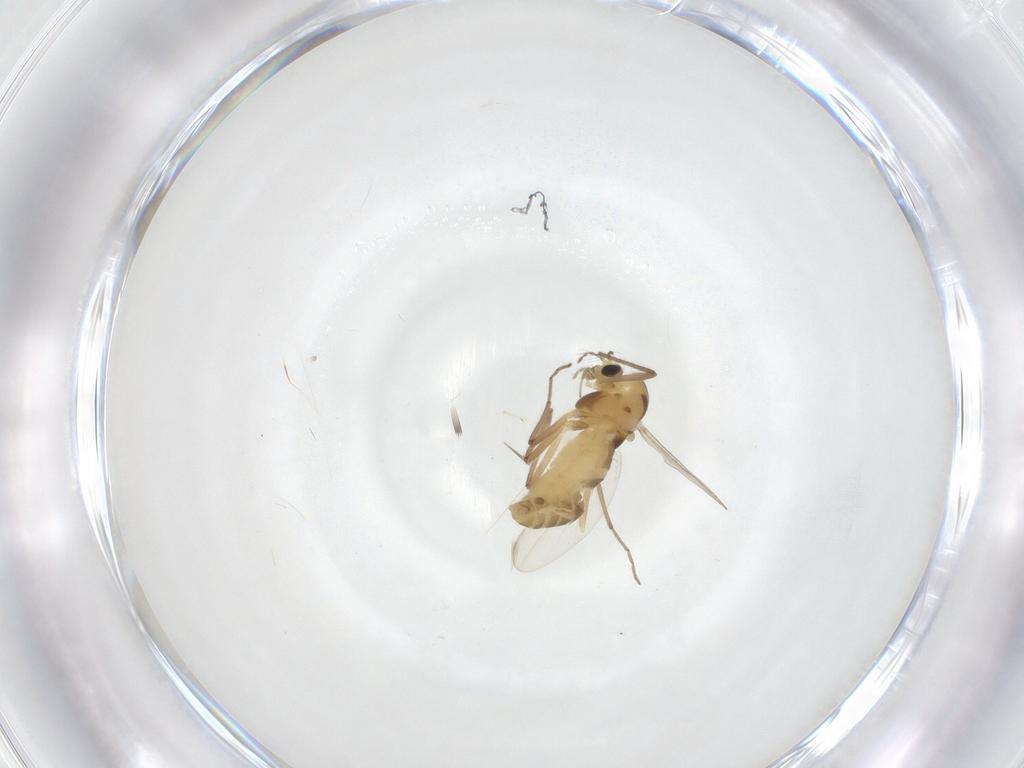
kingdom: Animalia
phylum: Arthropoda
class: Insecta
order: Diptera
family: Chironomidae
